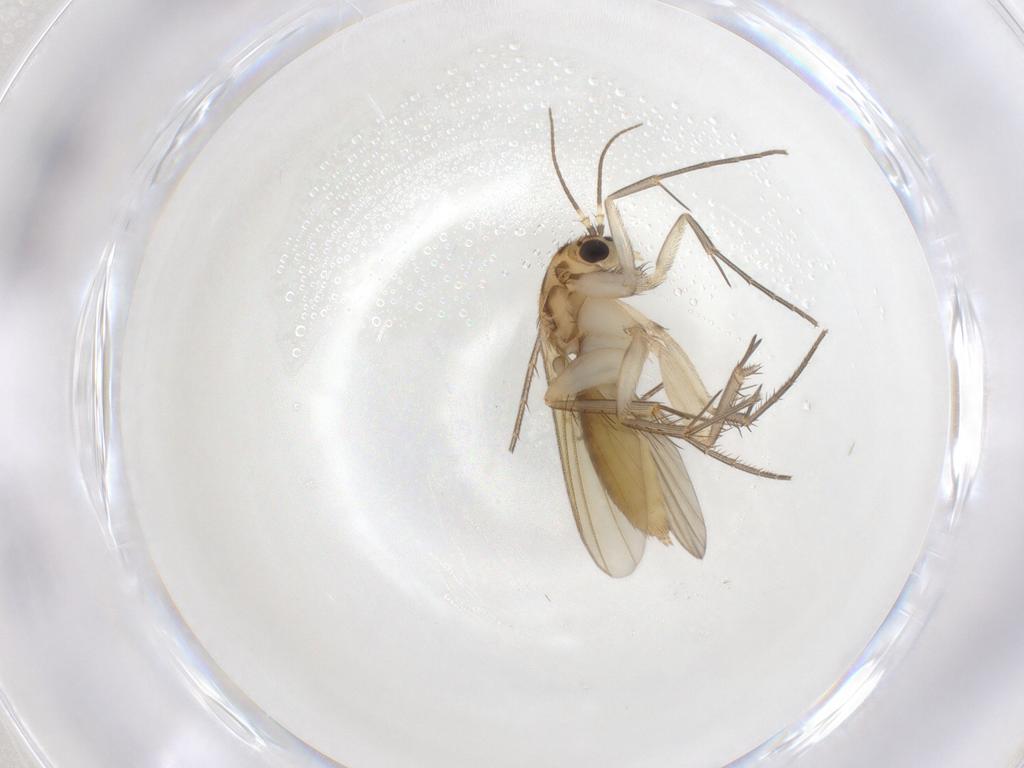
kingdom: Animalia
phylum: Arthropoda
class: Insecta
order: Diptera
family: Mycetophilidae
